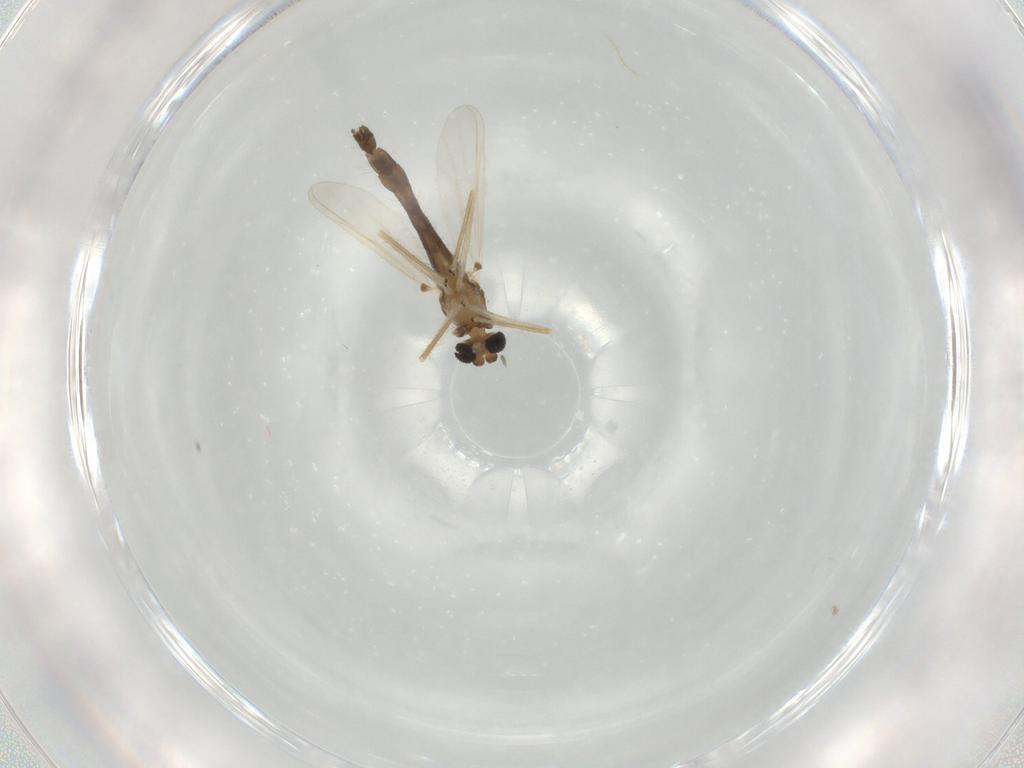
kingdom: Animalia
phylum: Arthropoda
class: Insecta
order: Diptera
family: Chironomidae
